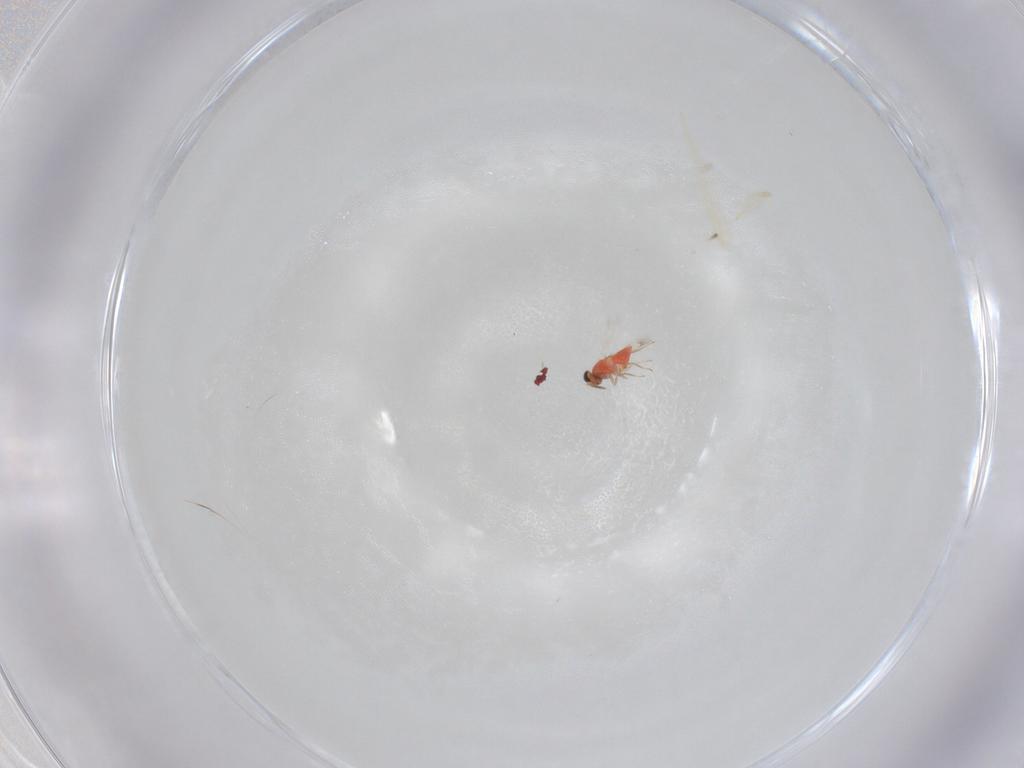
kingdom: Animalia
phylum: Arthropoda
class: Insecta
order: Hymenoptera
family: Trichogrammatidae
